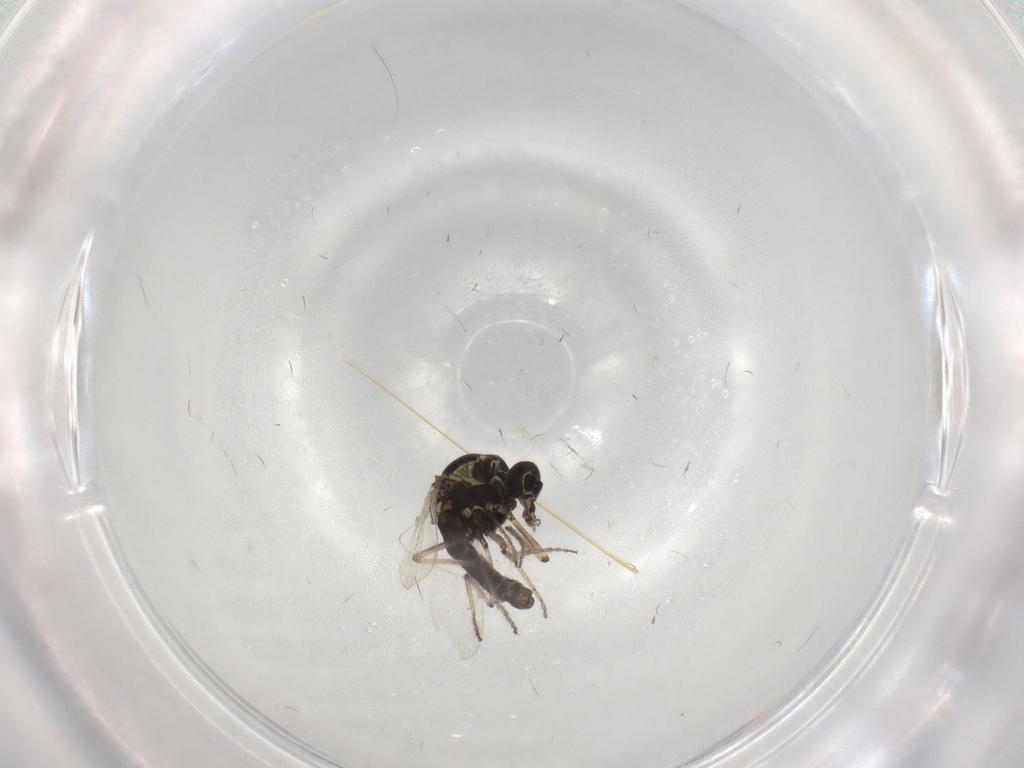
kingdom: Animalia
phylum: Arthropoda
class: Insecta
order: Diptera
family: Ceratopogonidae
